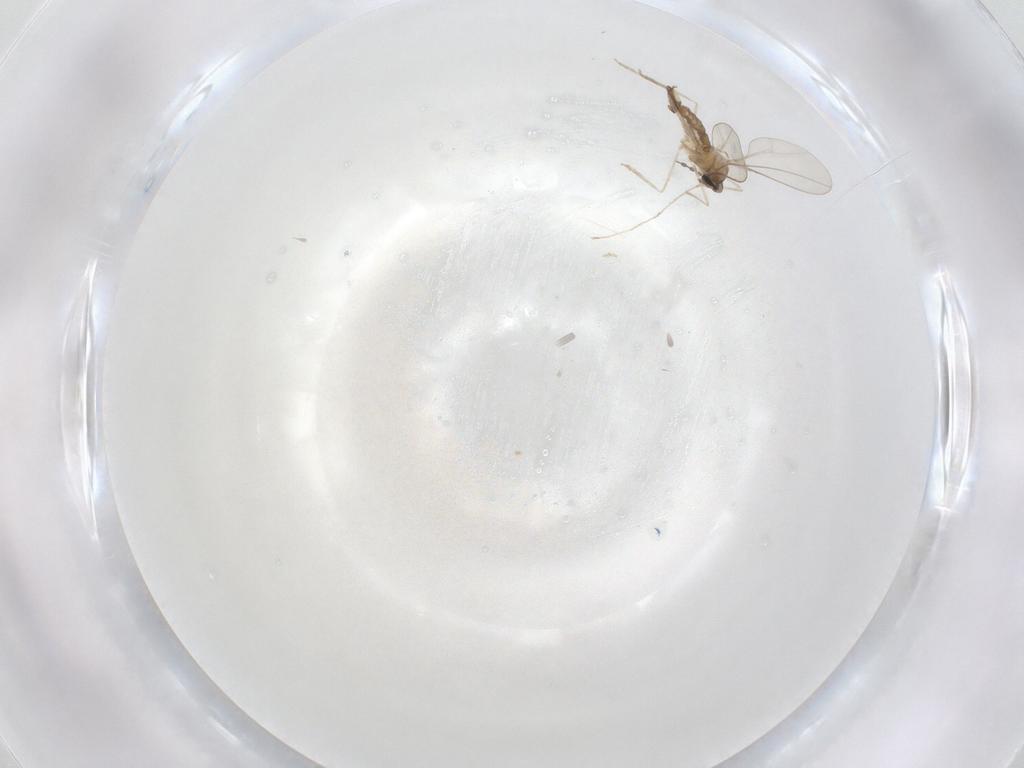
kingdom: Animalia
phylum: Arthropoda
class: Insecta
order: Diptera
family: Cecidomyiidae
